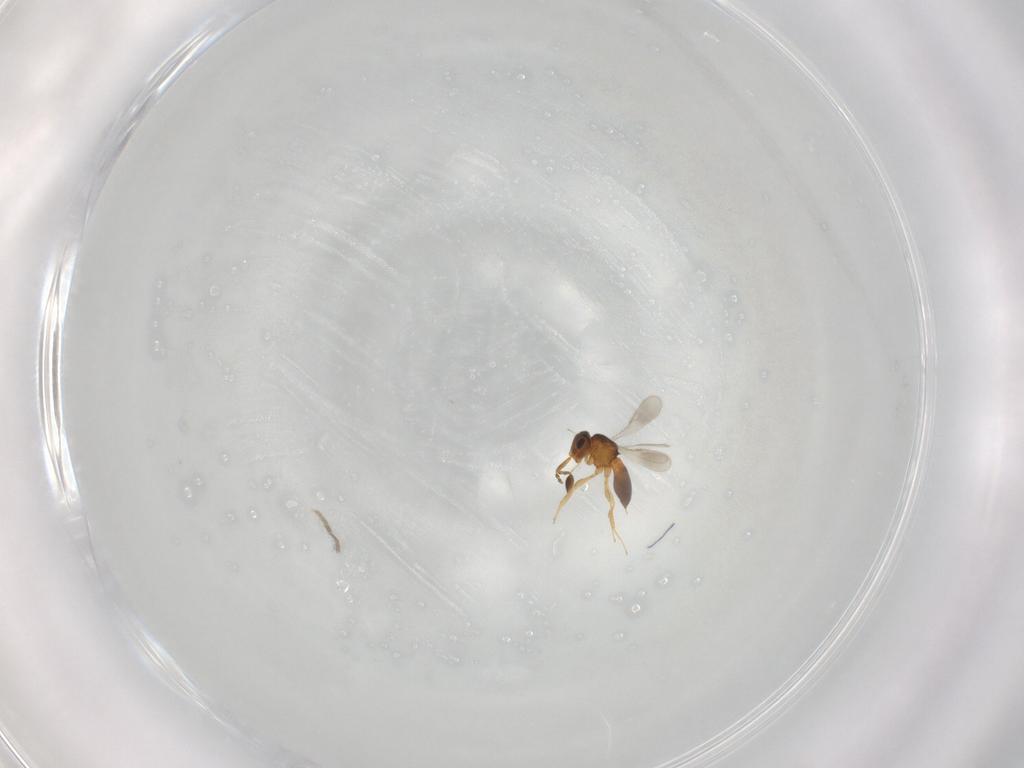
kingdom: Animalia
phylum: Arthropoda
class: Insecta
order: Hymenoptera
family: Scelionidae
